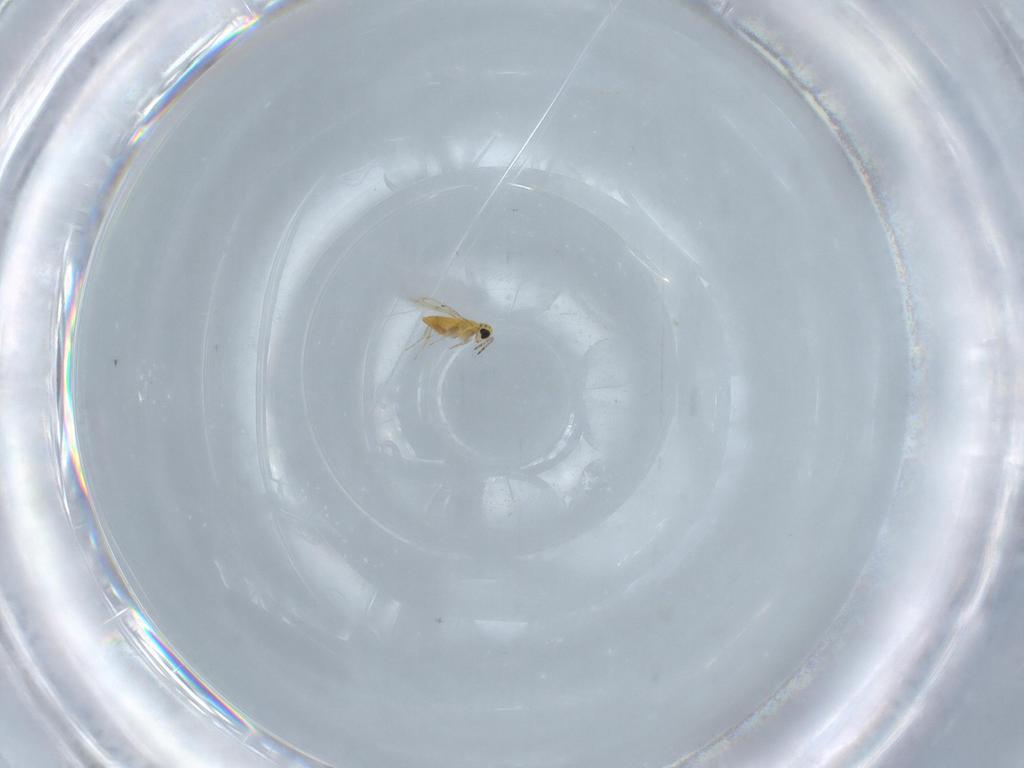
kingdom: Animalia
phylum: Arthropoda
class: Insecta
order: Hymenoptera
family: Trichogrammatidae
